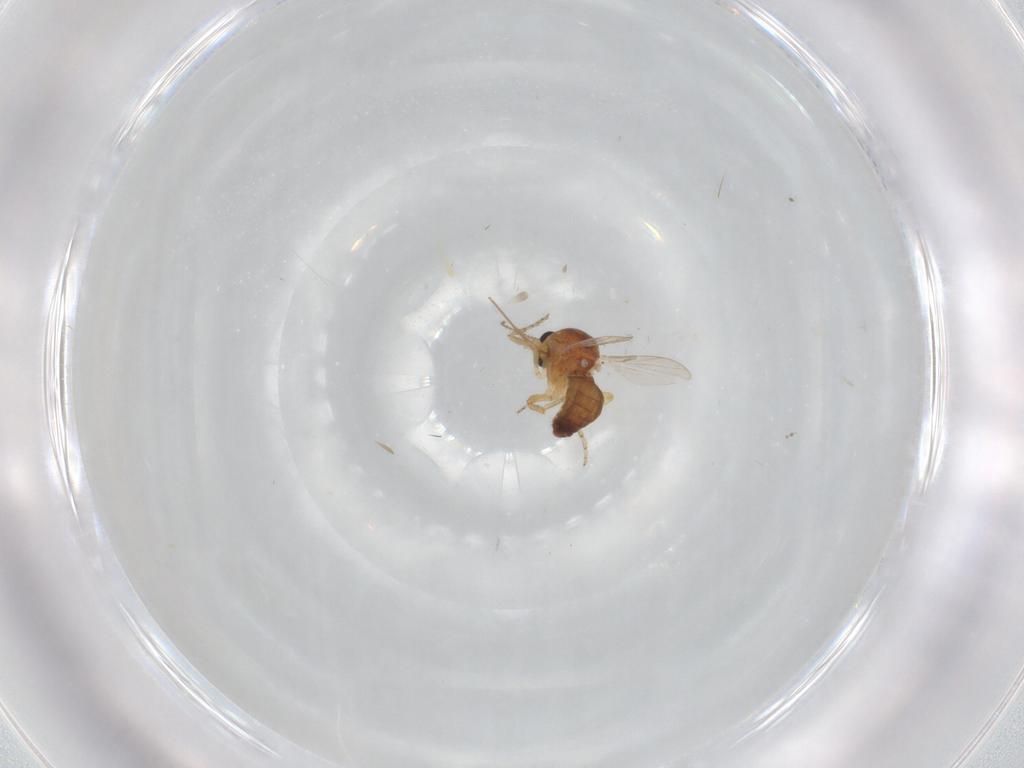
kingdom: Animalia
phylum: Arthropoda
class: Insecta
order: Diptera
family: Ceratopogonidae
